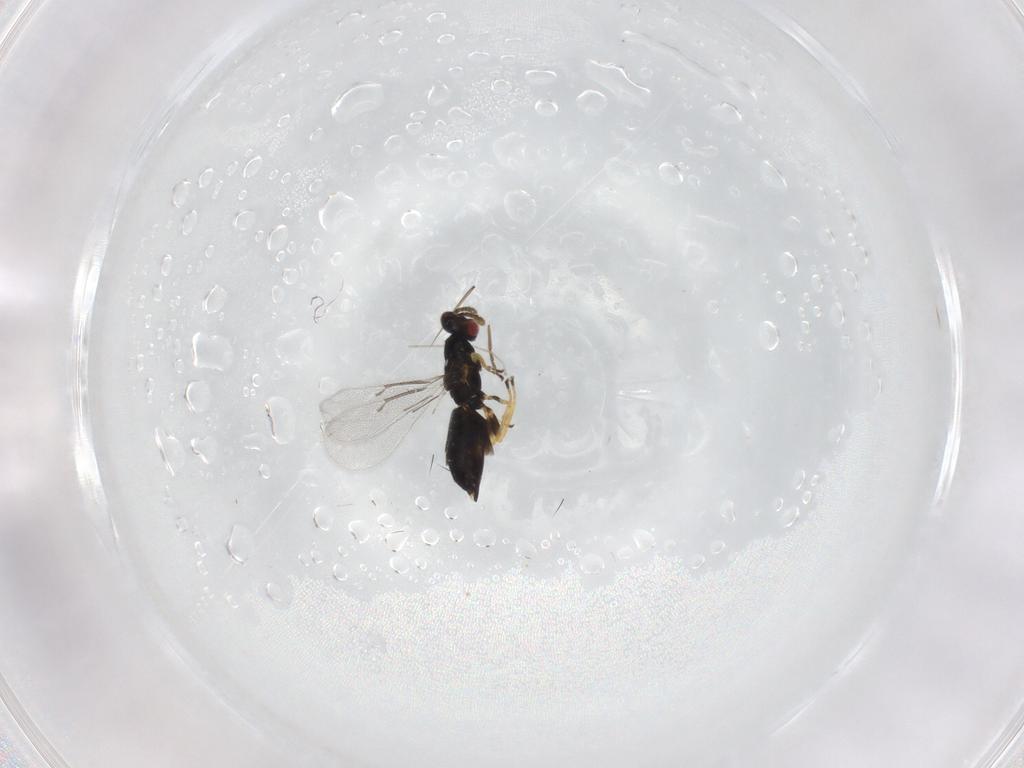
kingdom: Animalia
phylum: Arthropoda
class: Insecta
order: Hymenoptera
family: Eulophidae
